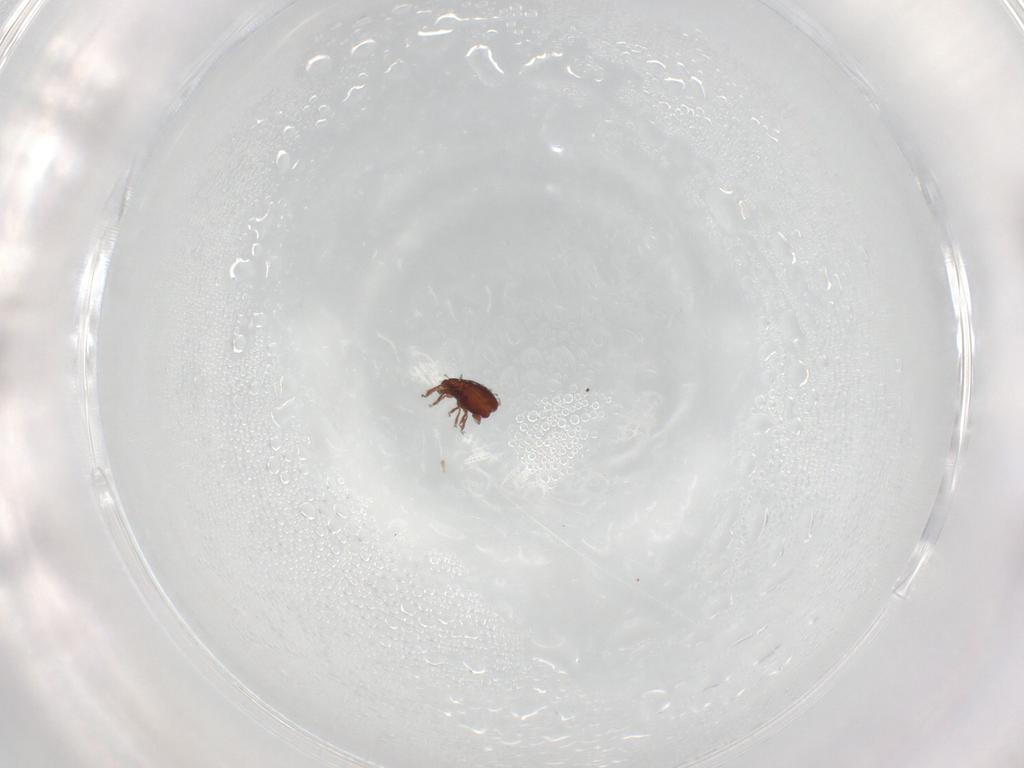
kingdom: Animalia
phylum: Arthropoda
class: Arachnida
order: Sarcoptiformes
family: Oribatulidae
